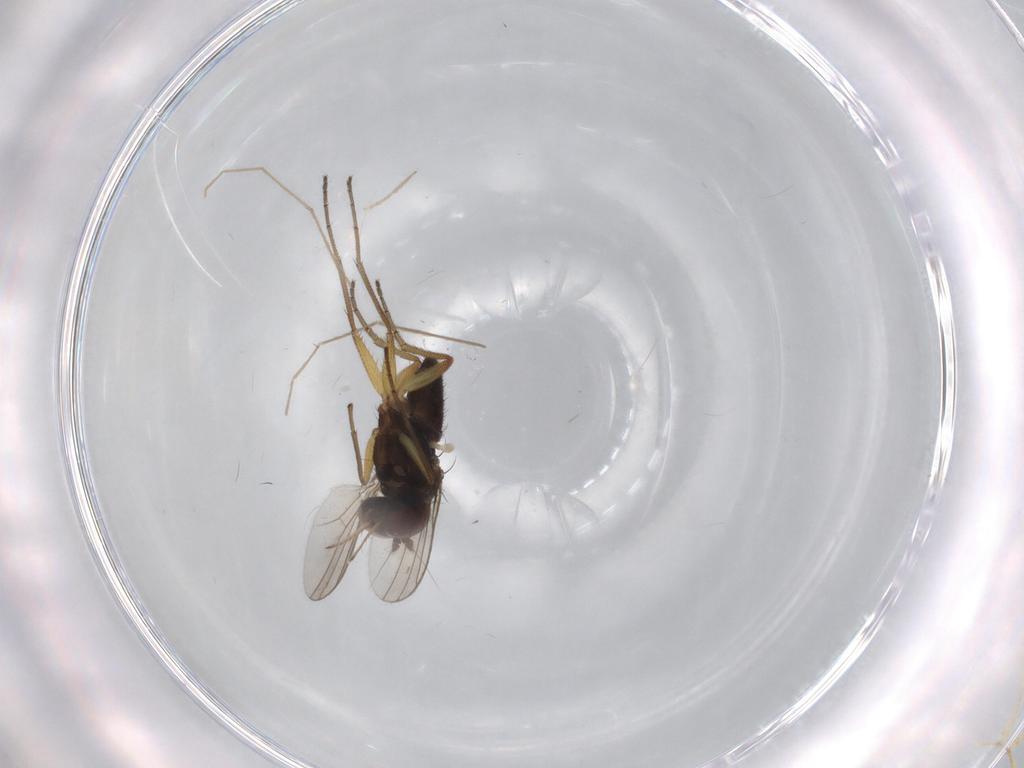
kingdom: Animalia
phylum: Arthropoda
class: Insecta
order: Diptera
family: Dolichopodidae
